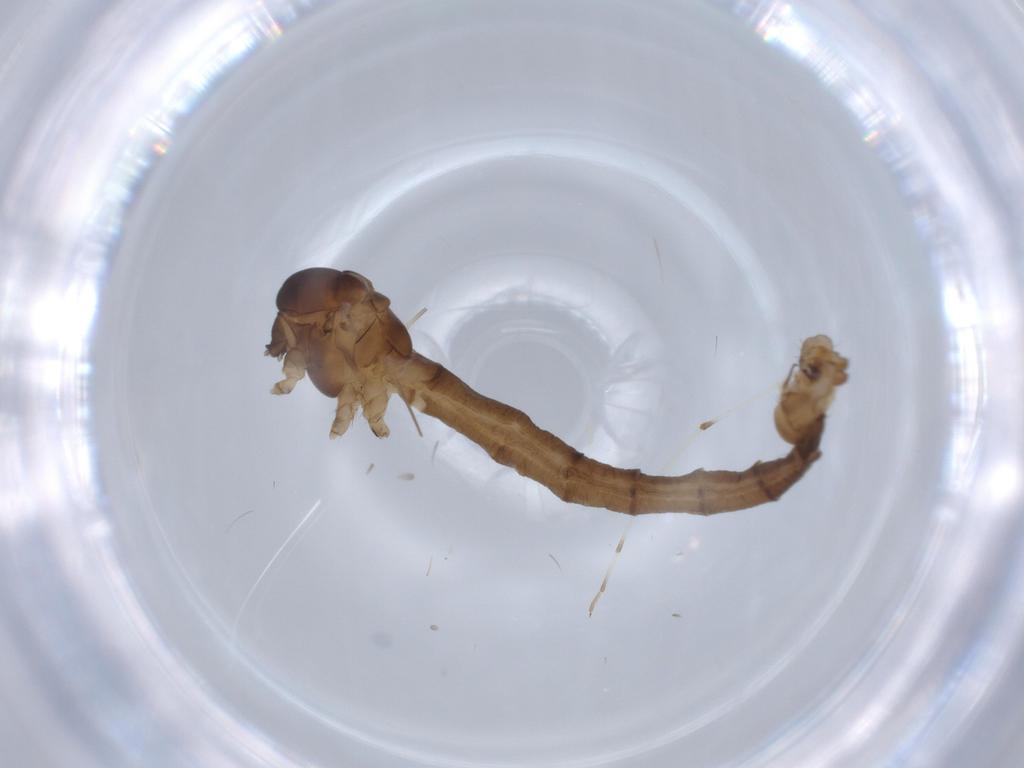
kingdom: Animalia
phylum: Arthropoda
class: Insecta
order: Diptera
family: Limoniidae
